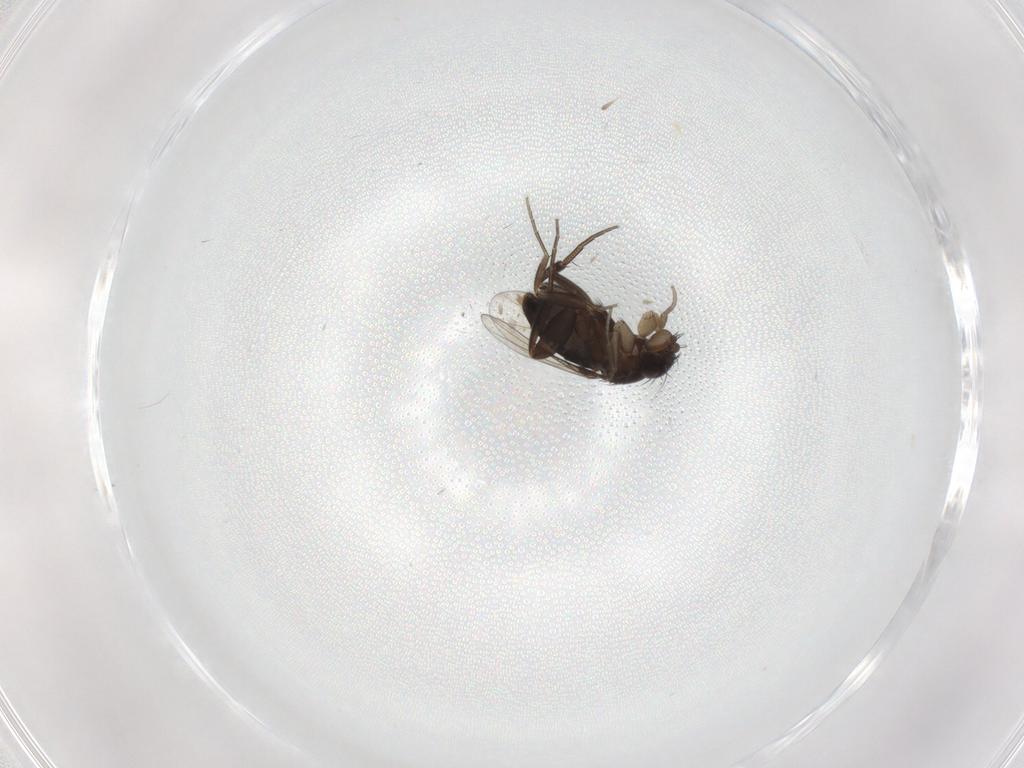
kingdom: Animalia
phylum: Arthropoda
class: Insecta
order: Diptera
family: Phoridae
